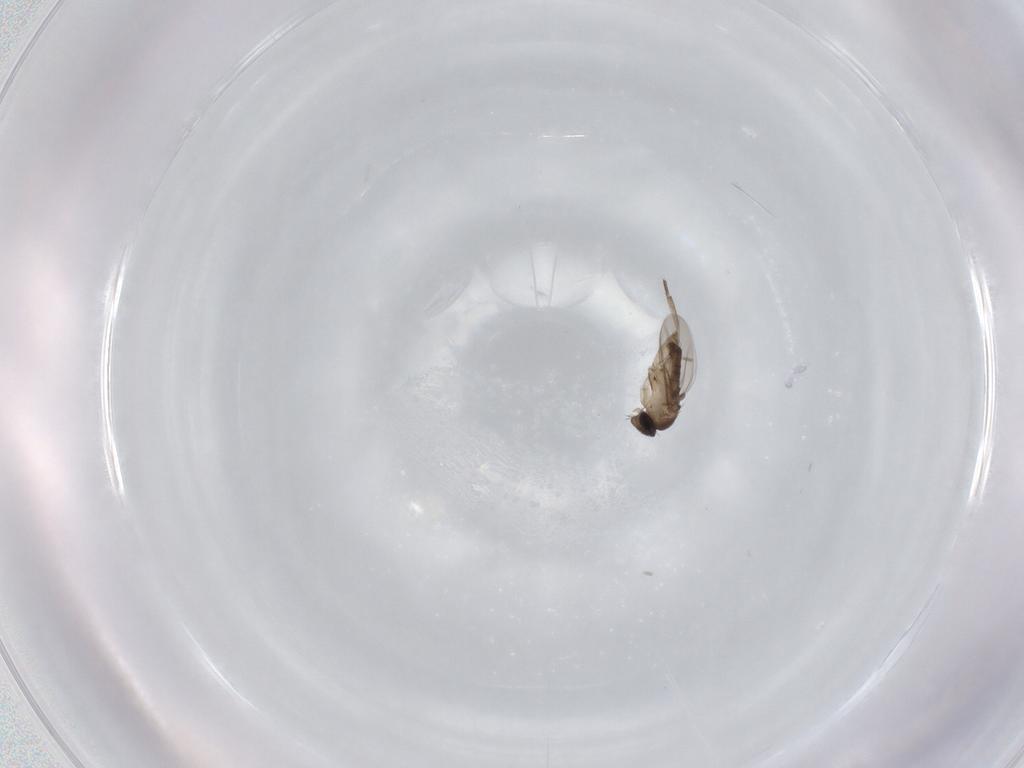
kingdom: Animalia
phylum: Arthropoda
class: Insecta
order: Diptera
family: Phoridae
